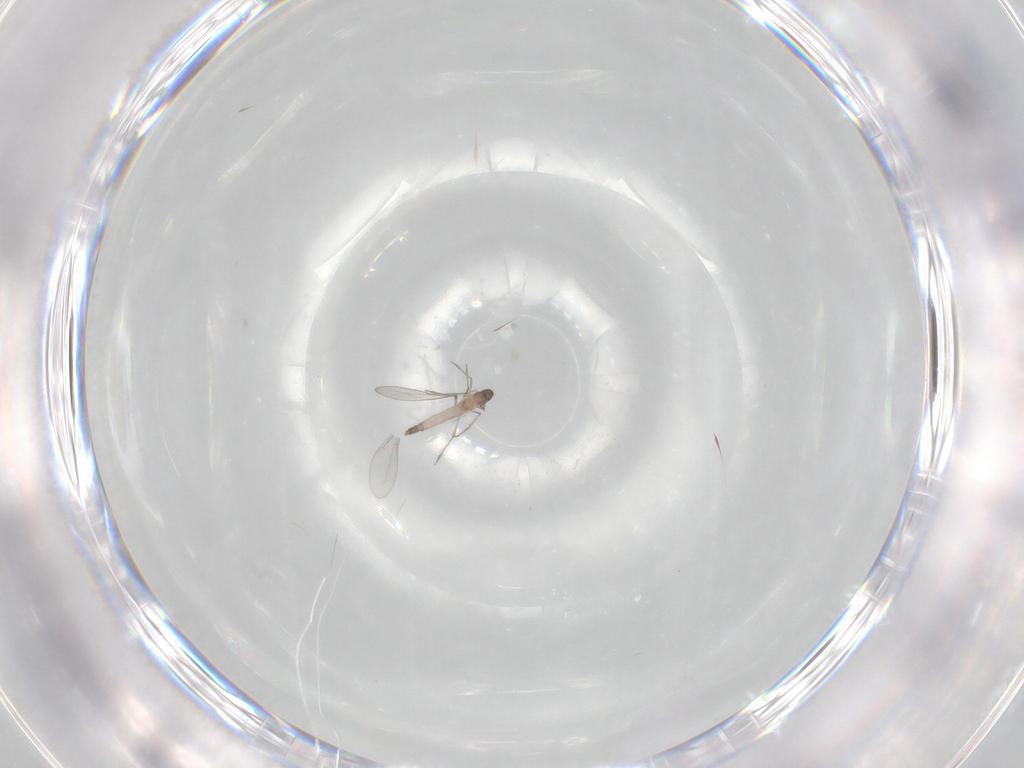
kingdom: Animalia
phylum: Arthropoda
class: Insecta
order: Diptera
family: Cecidomyiidae
